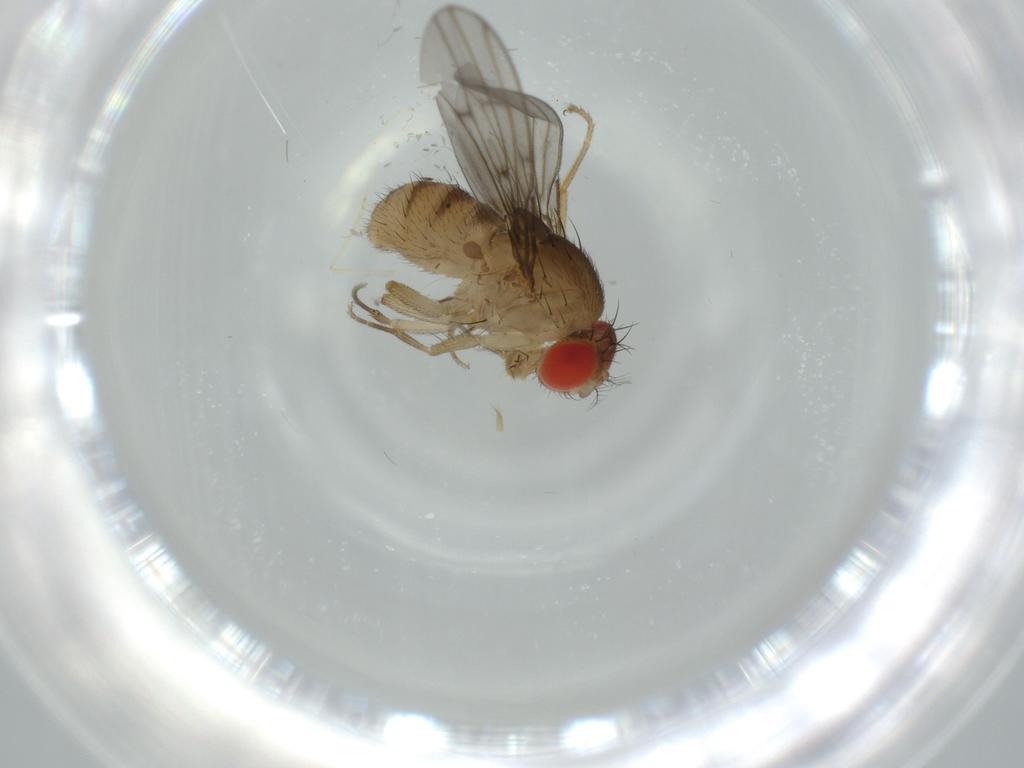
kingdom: Animalia
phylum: Arthropoda
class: Insecta
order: Diptera
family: Drosophilidae
